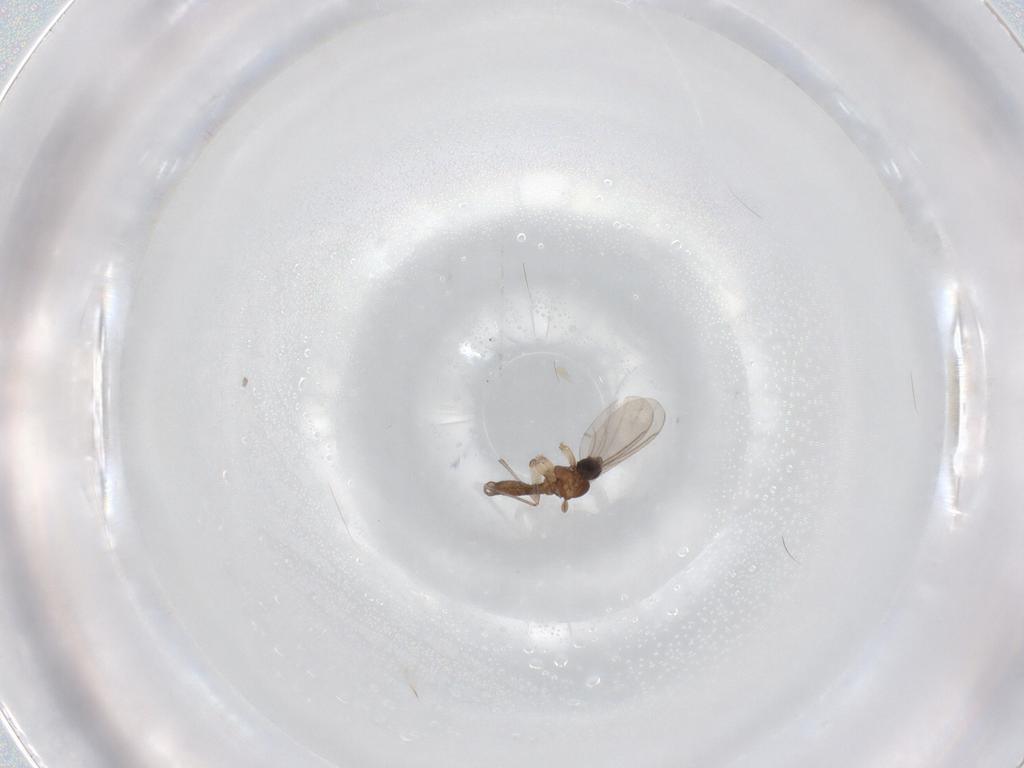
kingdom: Animalia
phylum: Arthropoda
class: Insecta
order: Diptera
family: Sciaridae
